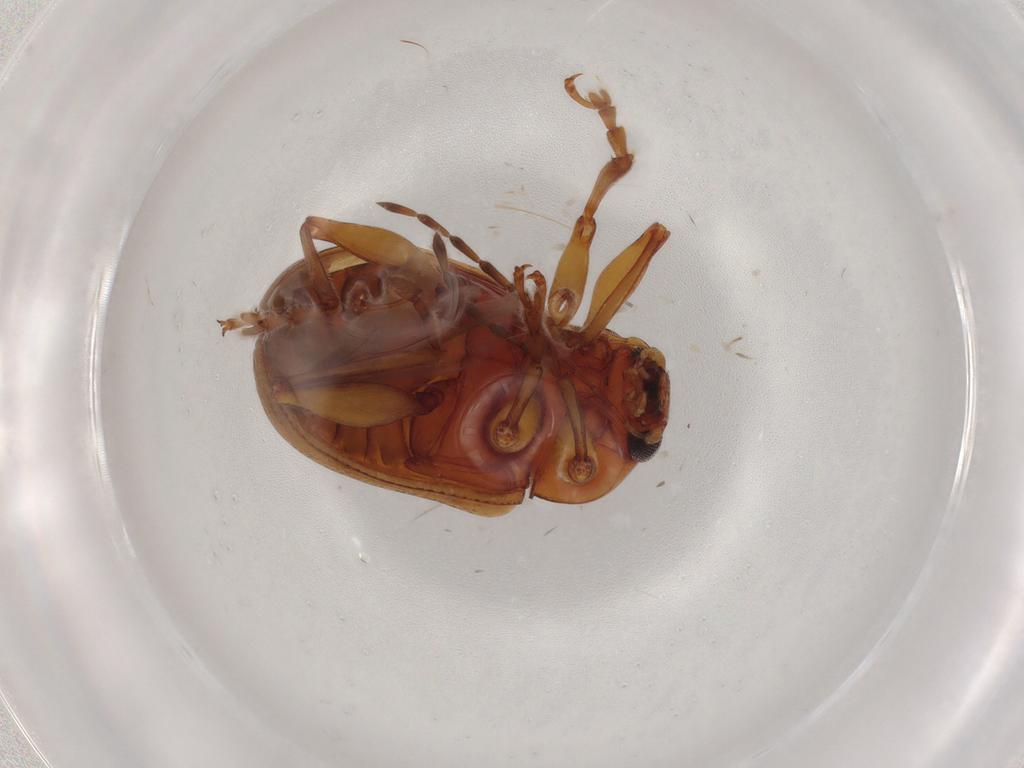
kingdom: Animalia
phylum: Arthropoda
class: Insecta
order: Coleoptera
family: Chrysomelidae
